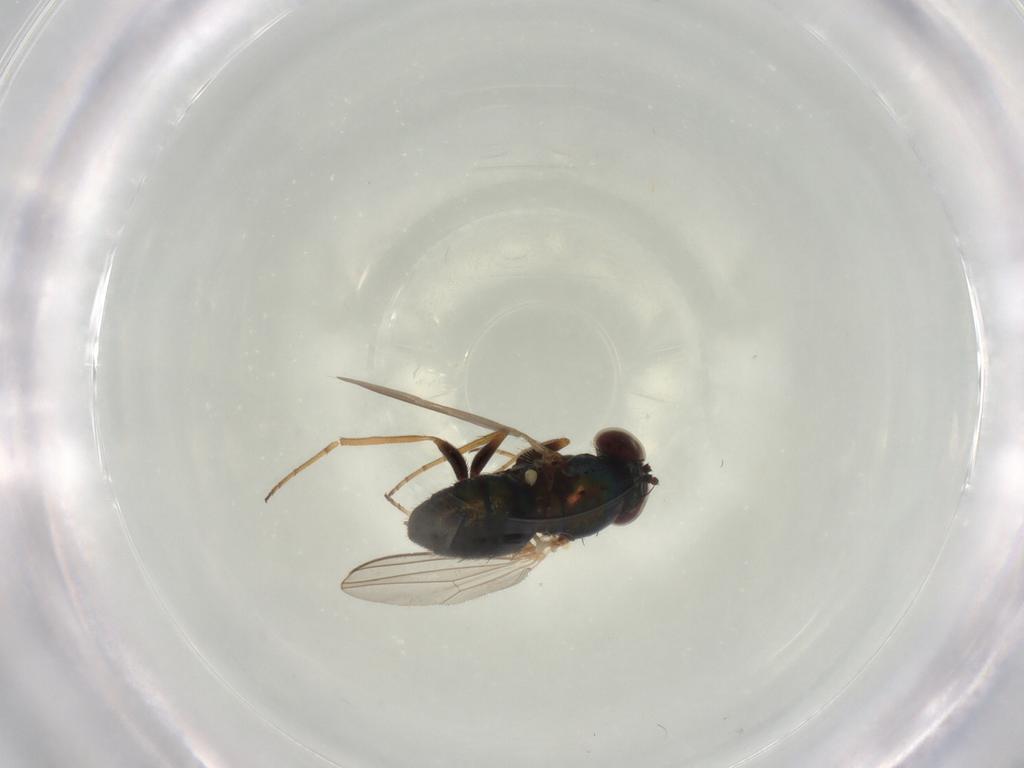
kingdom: Animalia
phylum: Arthropoda
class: Insecta
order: Diptera
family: Dolichopodidae
